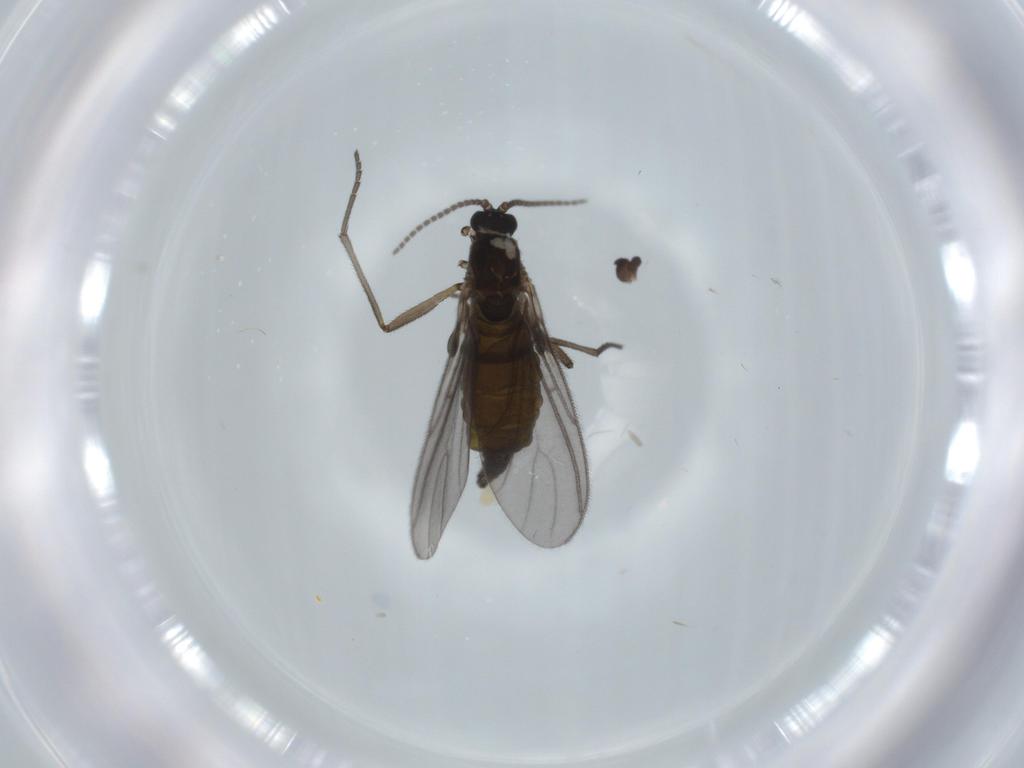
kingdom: Animalia
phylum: Arthropoda
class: Insecta
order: Diptera
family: Sciaridae
